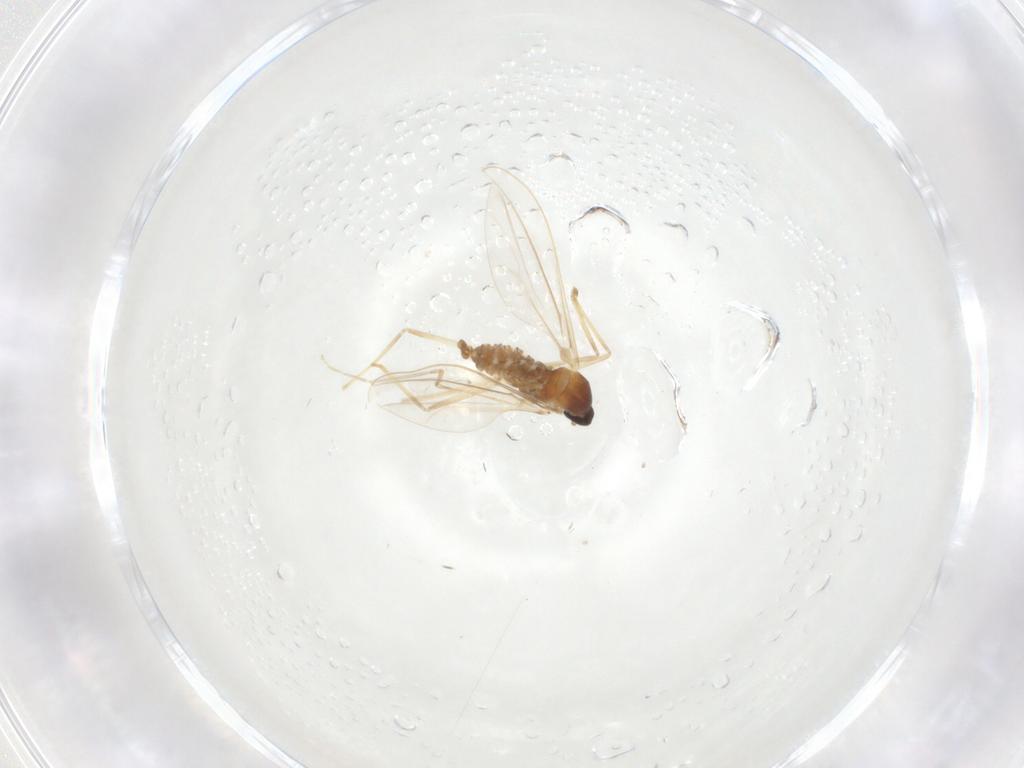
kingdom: Animalia
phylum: Arthropoda
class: Insecta
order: Diptera
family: Cecidomyiidae
